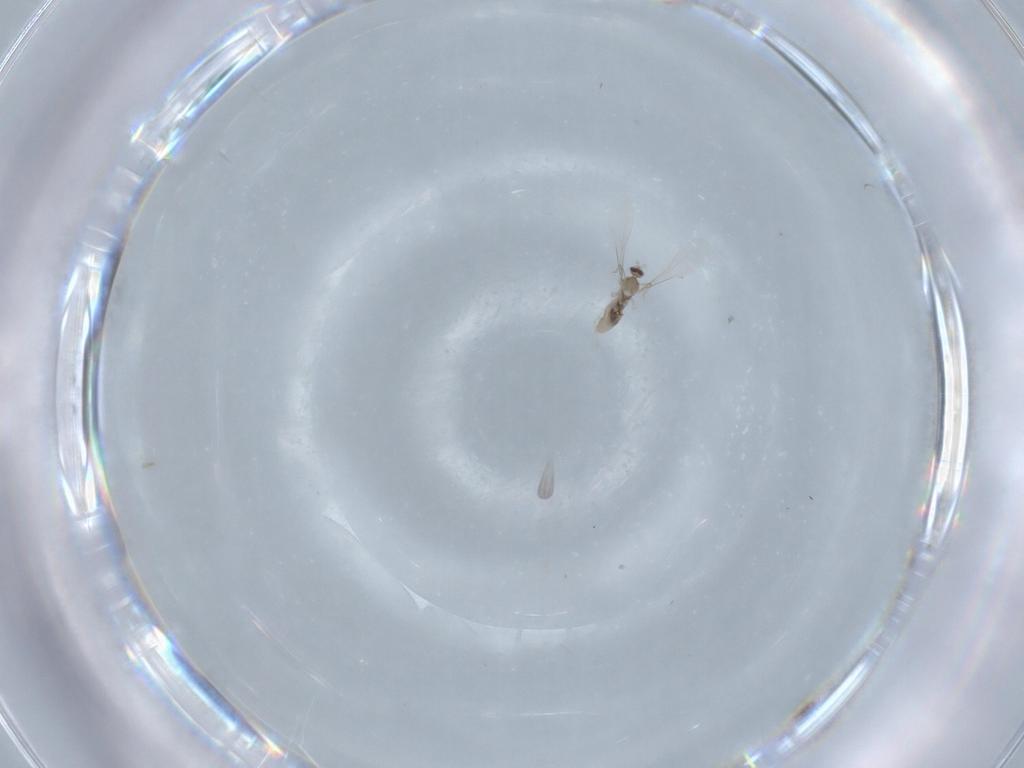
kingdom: Animalia
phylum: Arthropoda
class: Insecta
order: Diptera
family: Cecidomyiidae
